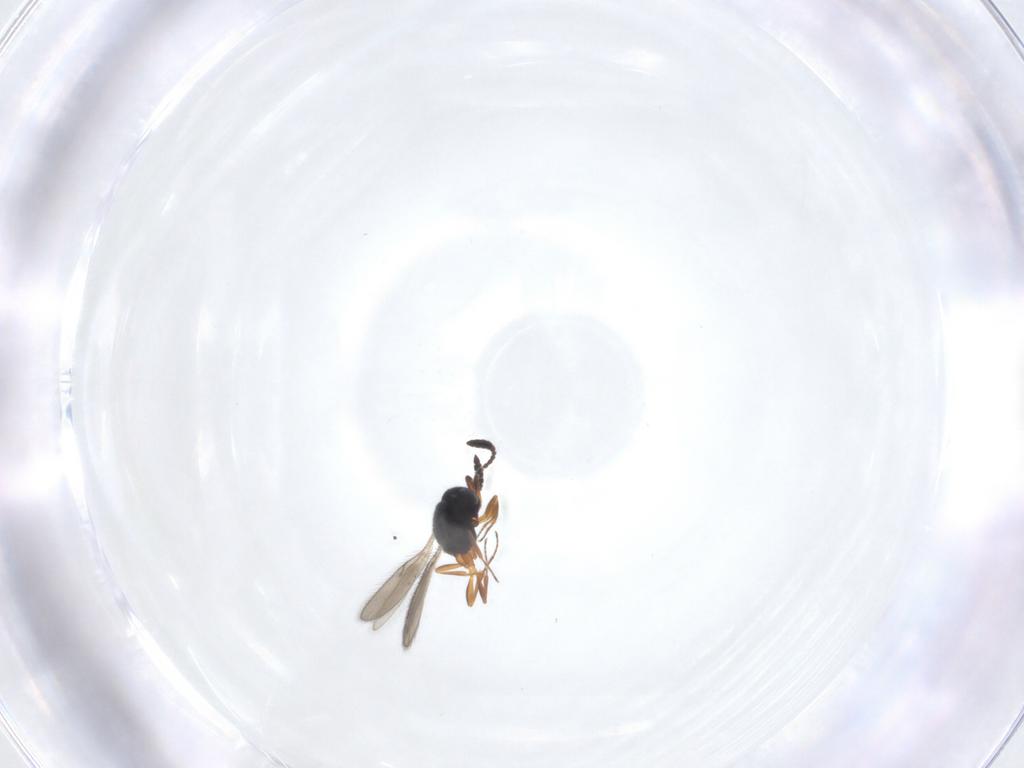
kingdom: Animalia
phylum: Arthropoda
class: Insecta
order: Hymenoptera
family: Scelionidae
